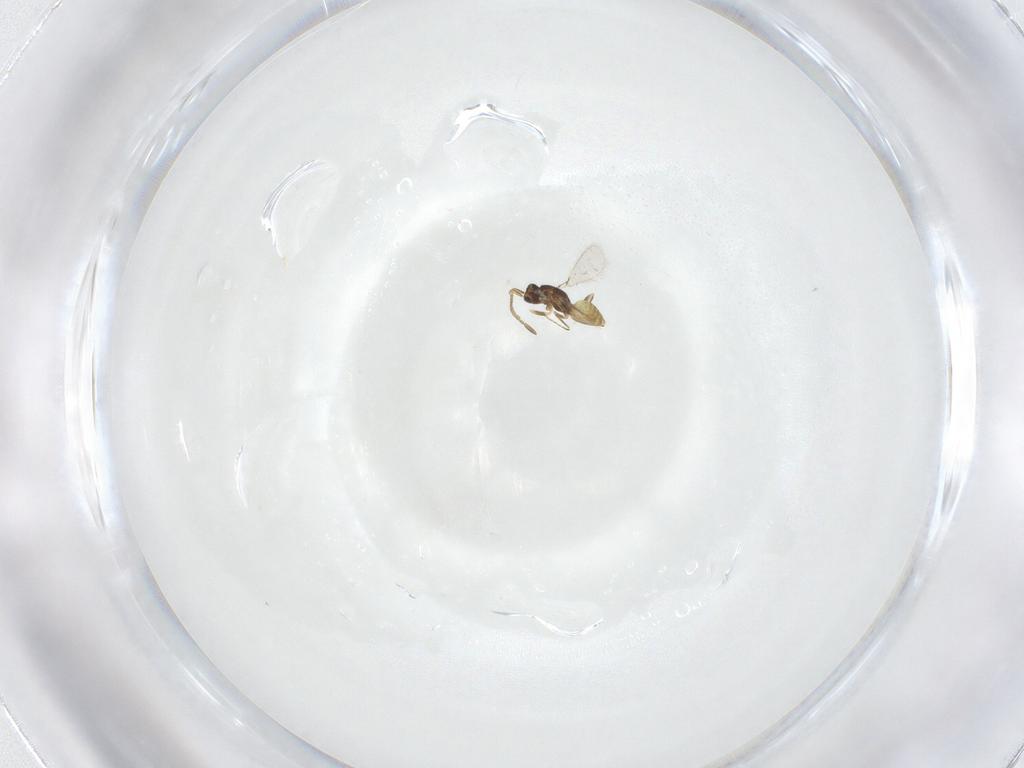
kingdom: Animalia
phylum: Arthropoda
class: Insecta
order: Hymenoptera
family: Mymaridae
